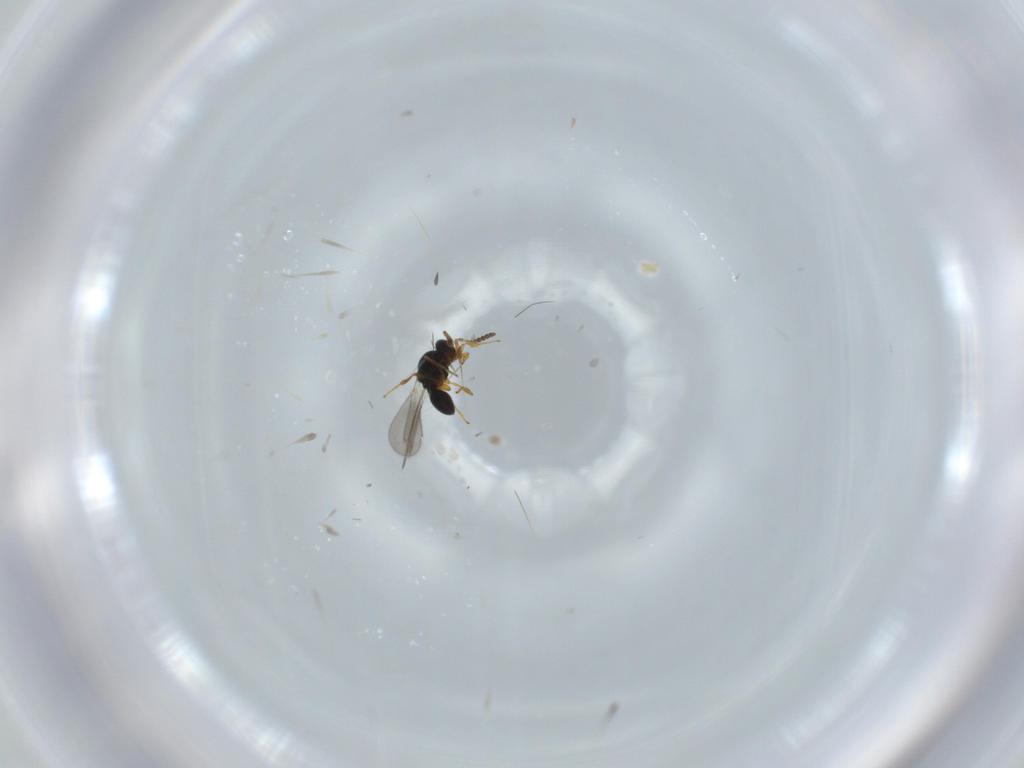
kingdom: Animalia
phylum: Arthropoda
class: Insecta
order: Hymenoptera
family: Platygastridae
